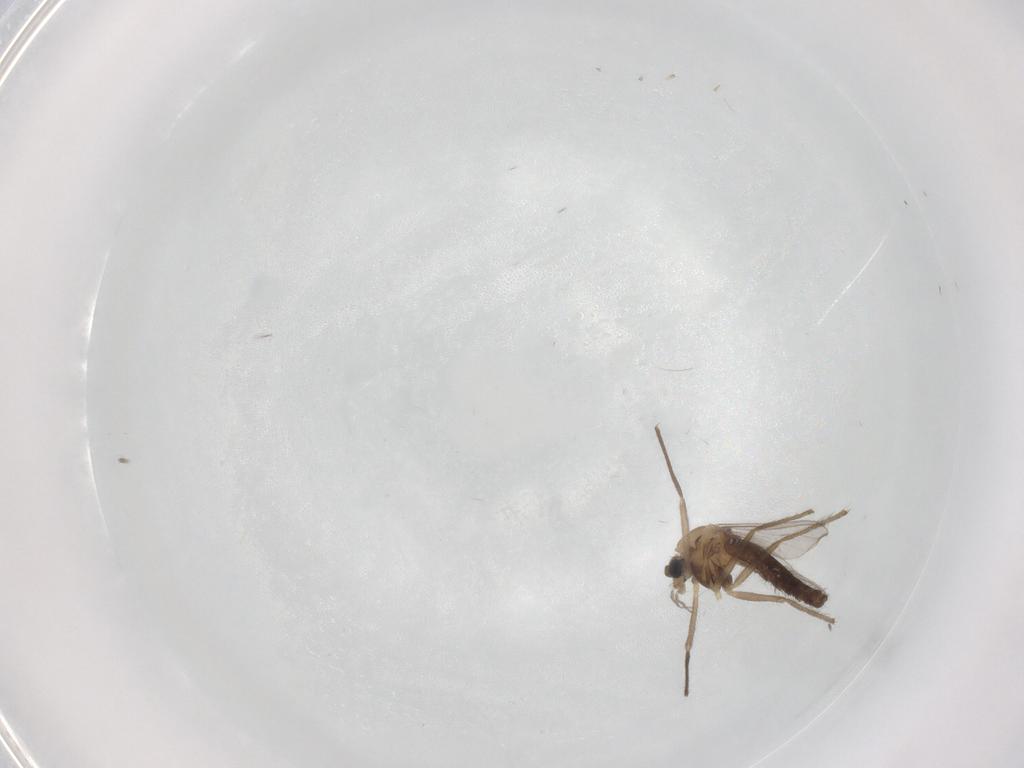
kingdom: Animalia
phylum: Arthropoda
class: Insecta
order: Diptera
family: Chironomidae
